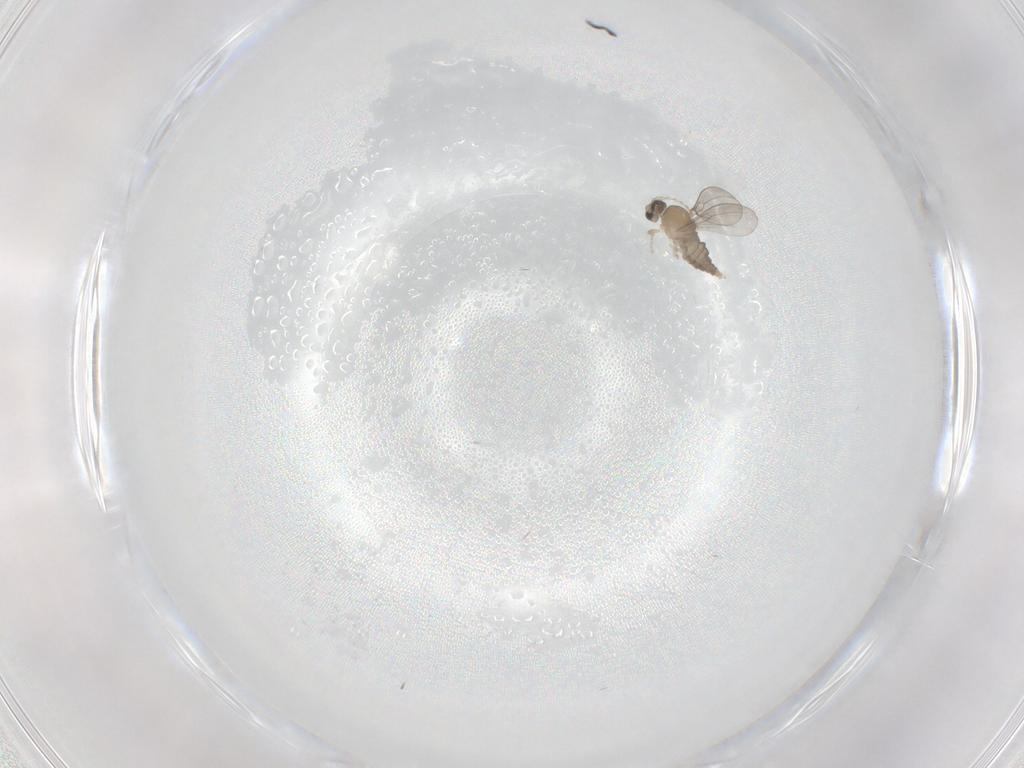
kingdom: Animalia
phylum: Arthropoda
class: Insecta
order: Diptera
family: Cecidomyiidae
